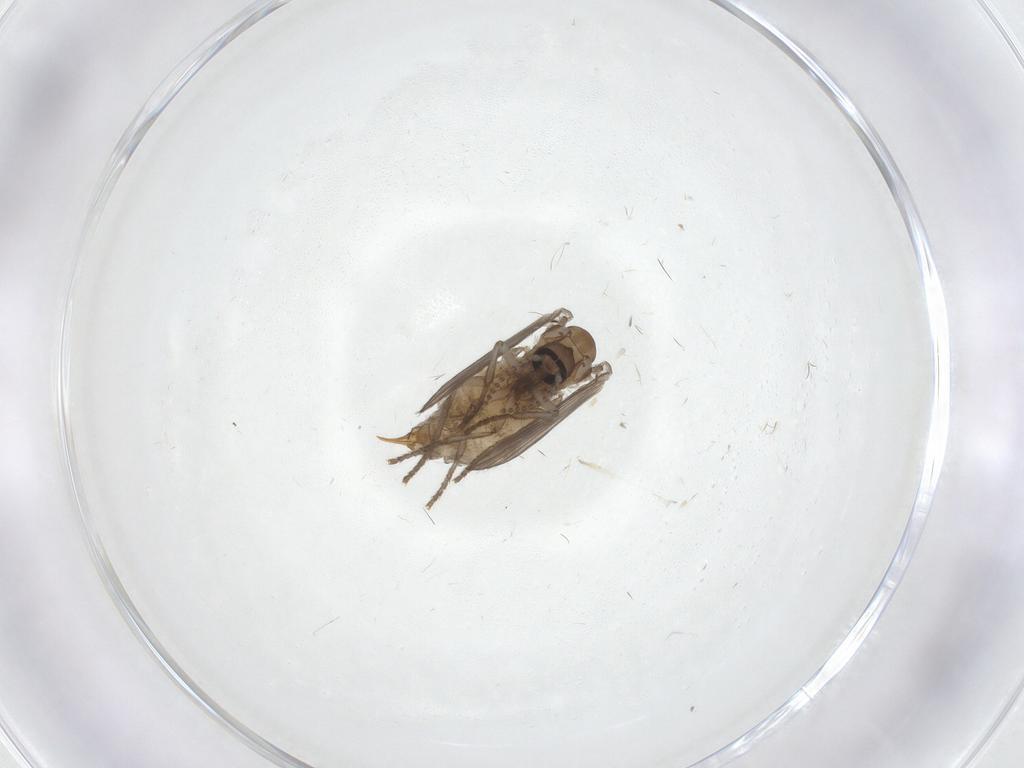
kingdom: Animalia
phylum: Arthropoda
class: Insecta
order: Diptera
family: Psychodidae
